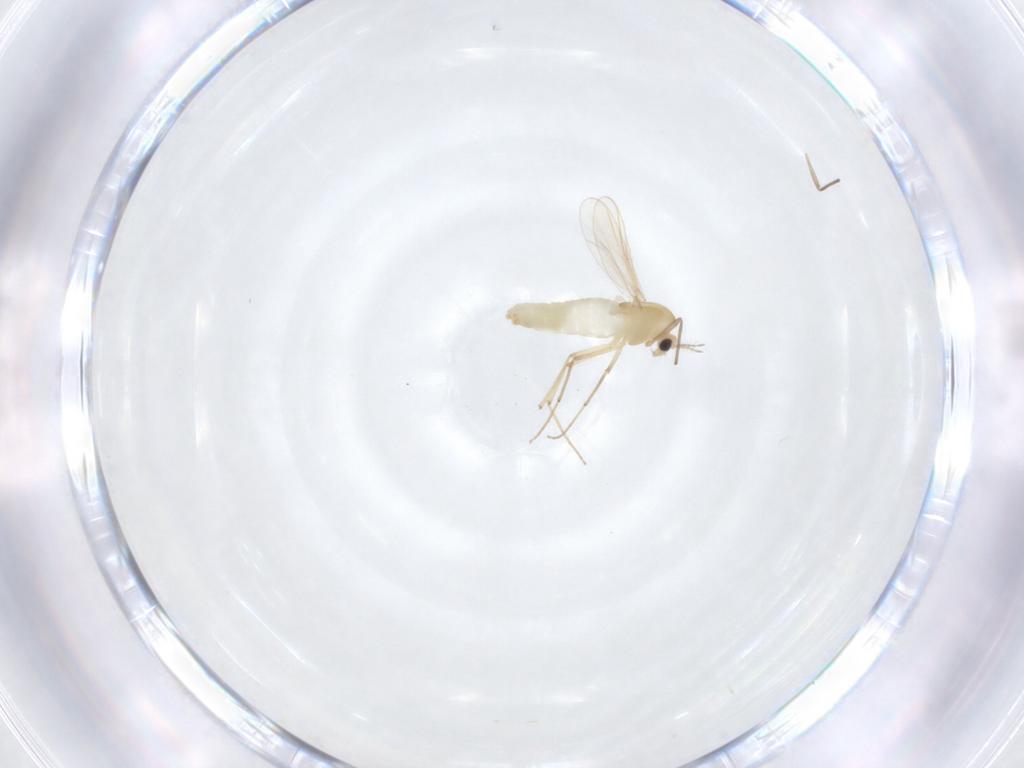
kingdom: Animalia
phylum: Arthropoda
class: Insecta
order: Diptera
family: Chironomidae
